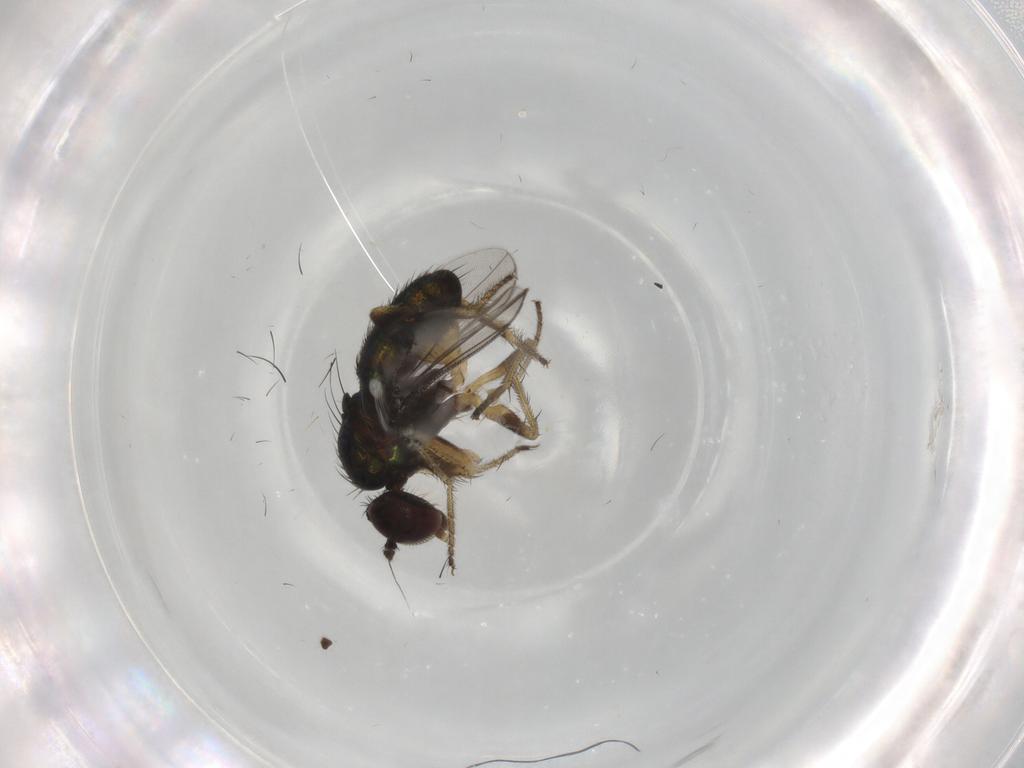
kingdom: Animalia
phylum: Arthropoda
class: Insecta
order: Diptera
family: Dolichopodidae
